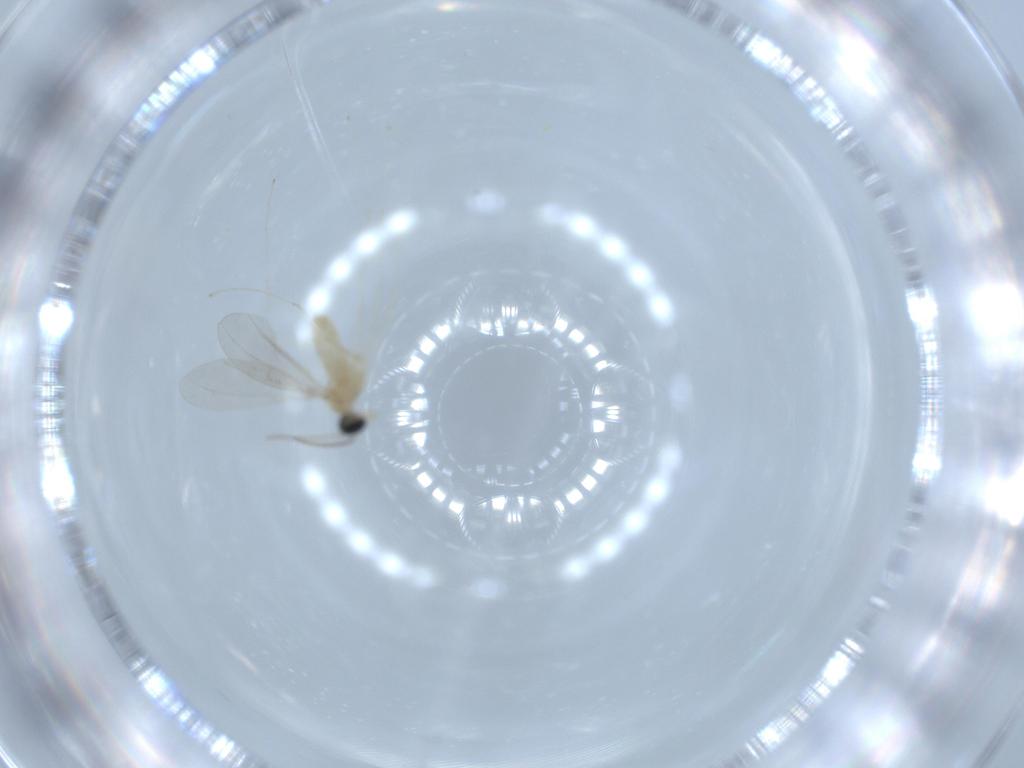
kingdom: Animalia
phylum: Arthropoda
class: Insecta
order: Diptera
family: Cecidomyiidae
